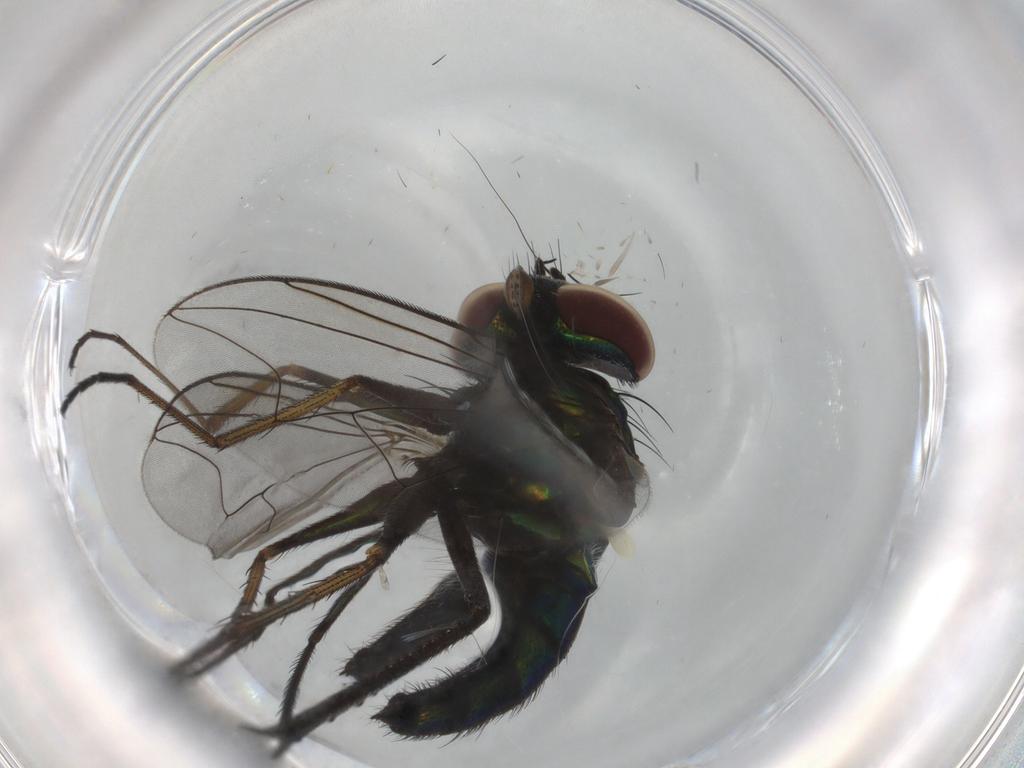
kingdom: Animalia
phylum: Arthropoda
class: Insecta
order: Diptera
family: Dolichopodidae
